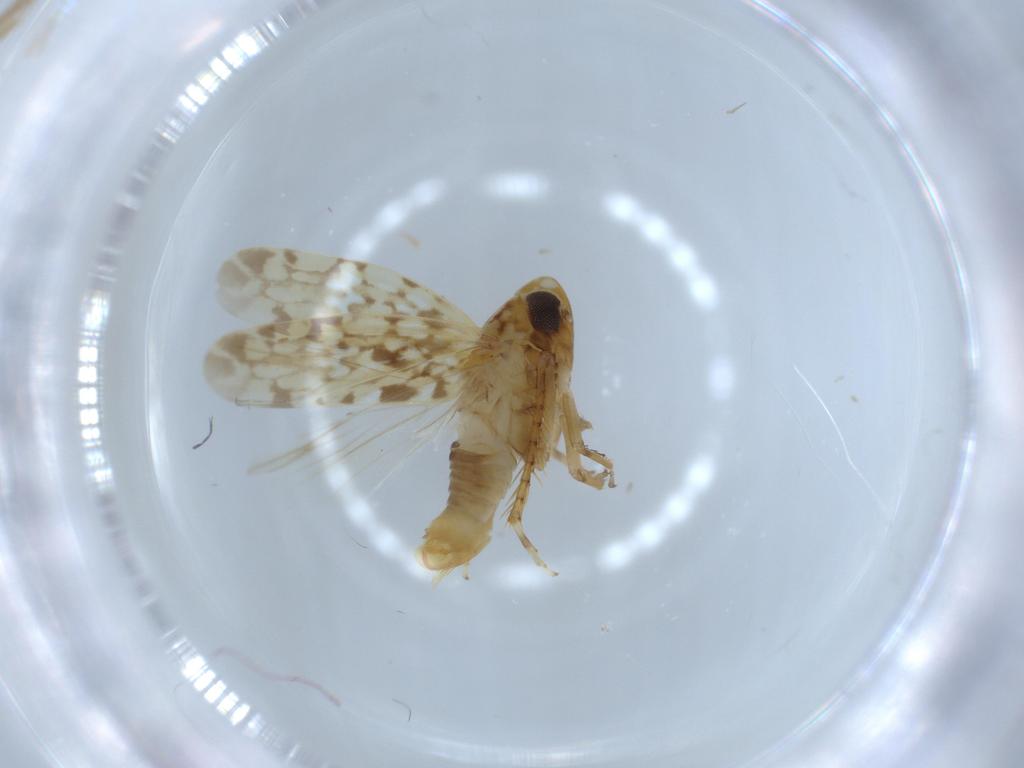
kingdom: Animalia
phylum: Arthropoda
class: Insecta
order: Hemiptera
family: Cicadellidae
